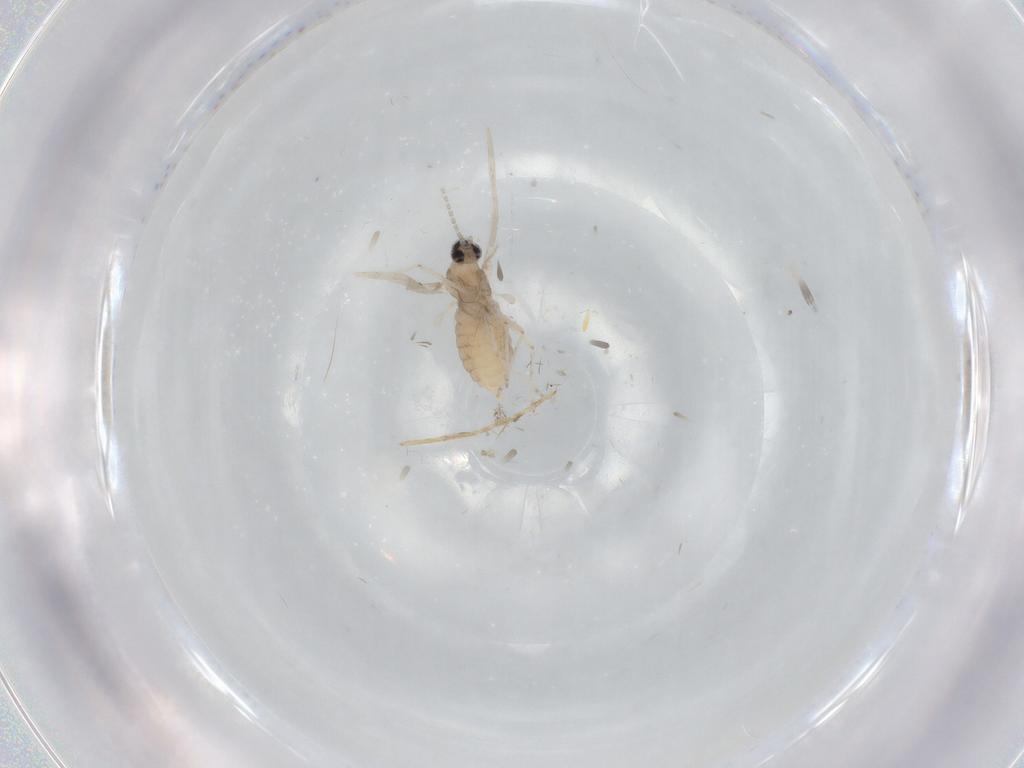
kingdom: Animalia
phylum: Arthropoda
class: Insecta
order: Diptera
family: Cecidomyiidae
